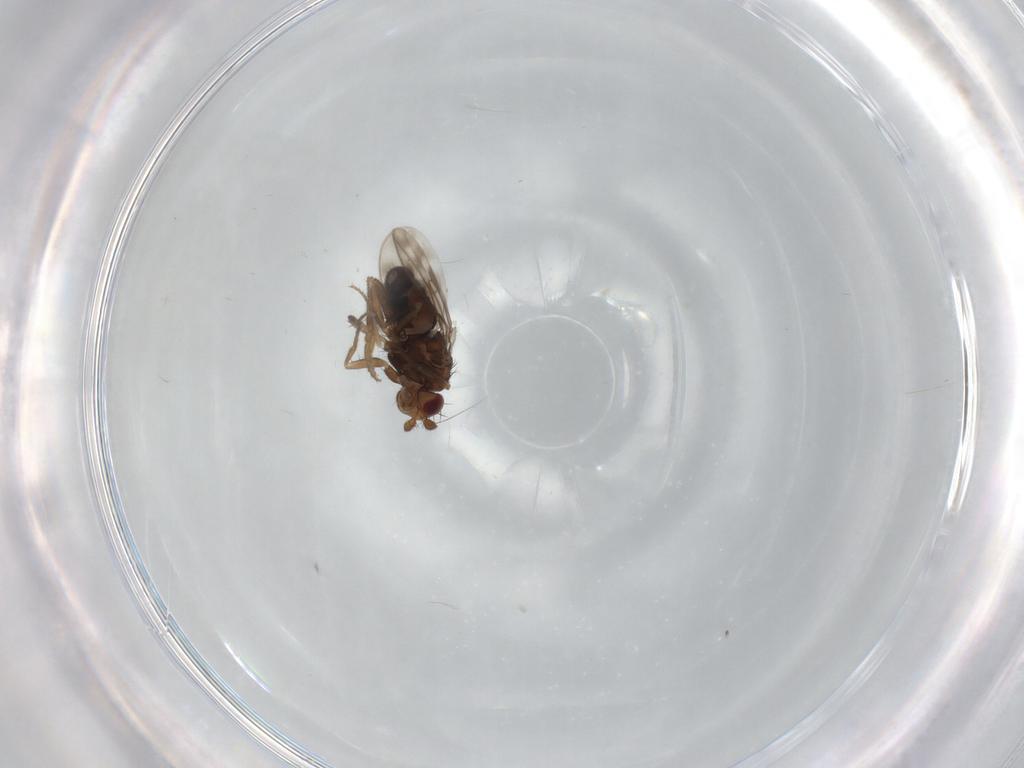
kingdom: Animalia
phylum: Arthropoda
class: Insecta
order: Diptera
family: Sphaeroceridae
